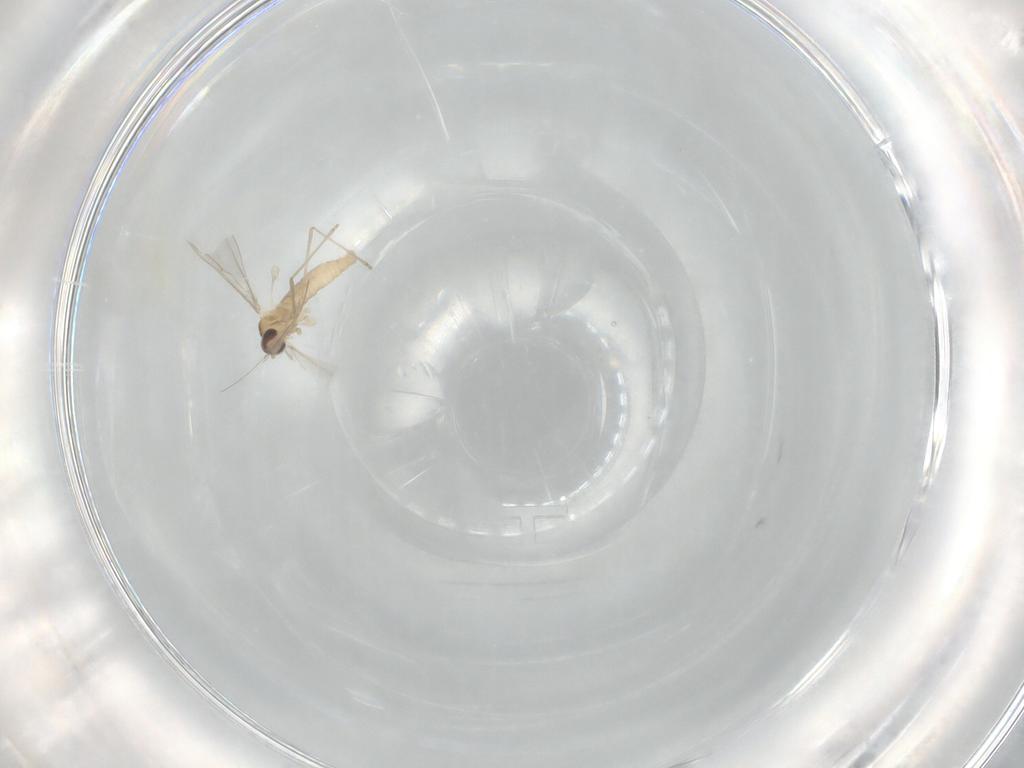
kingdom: Animalia
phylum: Arthropoda
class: Insecta
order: Diptera
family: Cecidomyiidae
